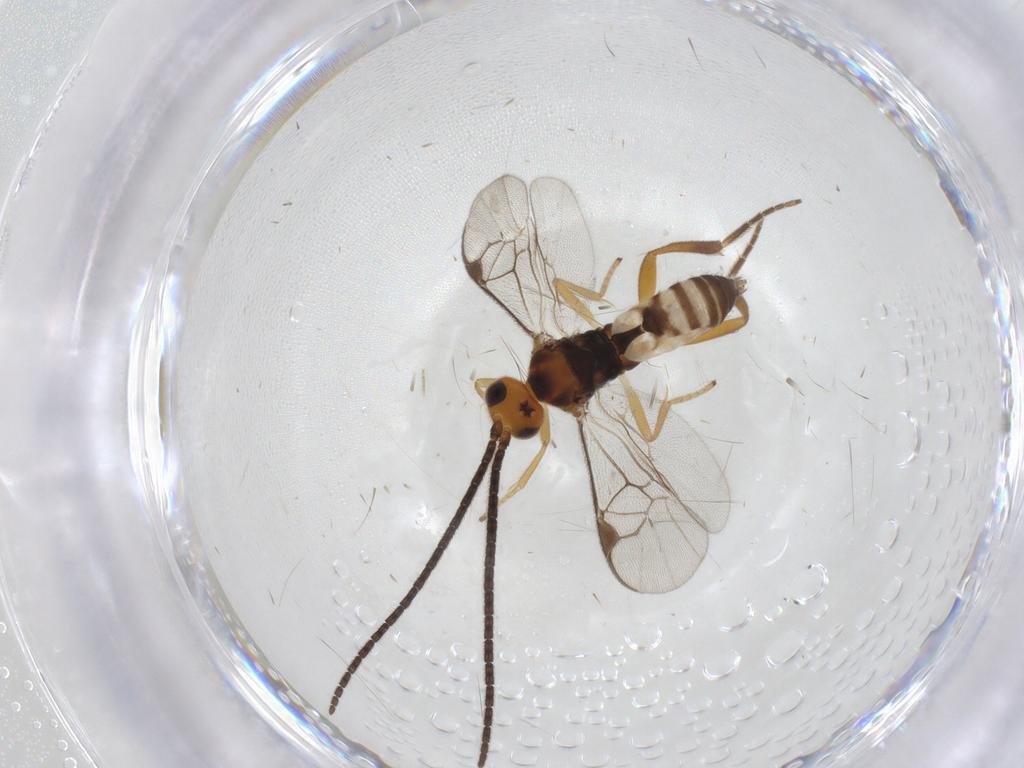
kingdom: Animalia
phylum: Arthropoda
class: Insecta
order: Hymenoptera
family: Braconidae
